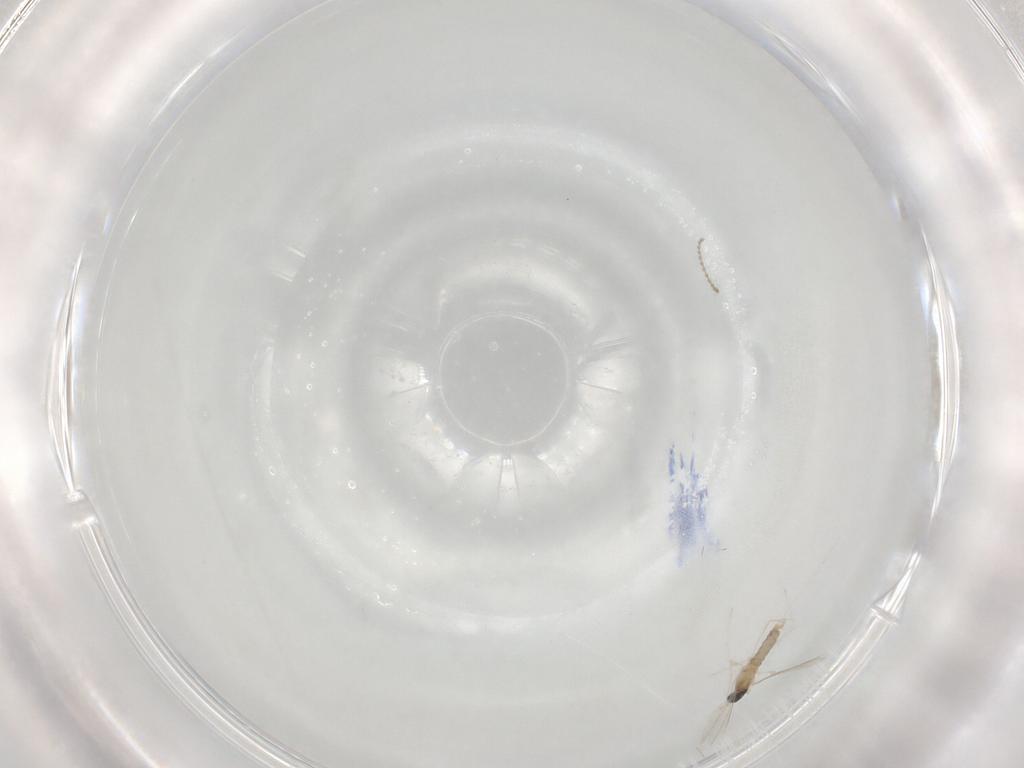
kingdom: Animalia
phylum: Arthropoda
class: Insecta
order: Diptera
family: Cecidomyiidae
